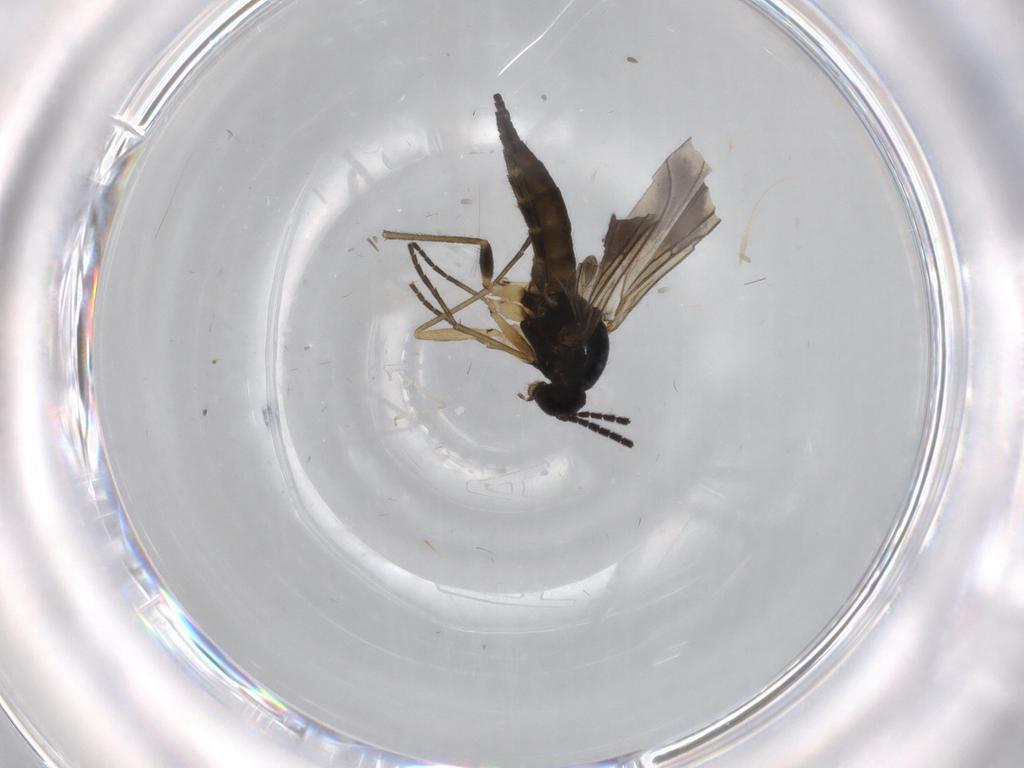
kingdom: Animalia
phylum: Arthropoda
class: Insecta
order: Diptera
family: Sciaridae
